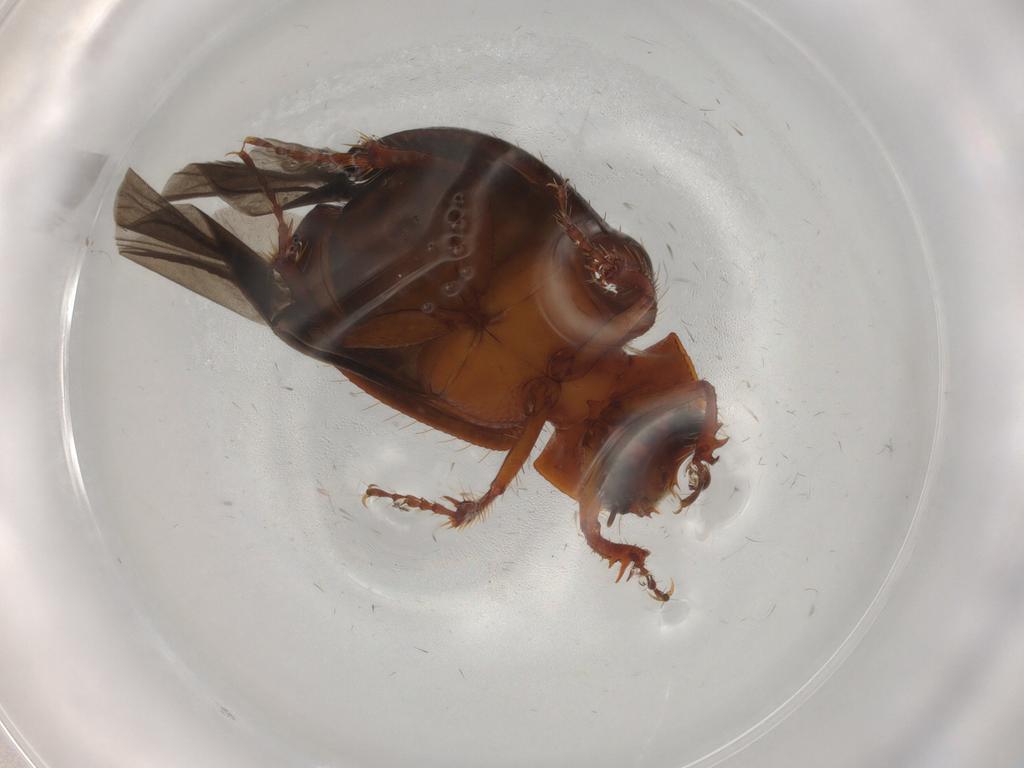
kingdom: Animalia
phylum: Arthropoda
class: Insecta
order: Coleoptera
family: Hybosoridae
